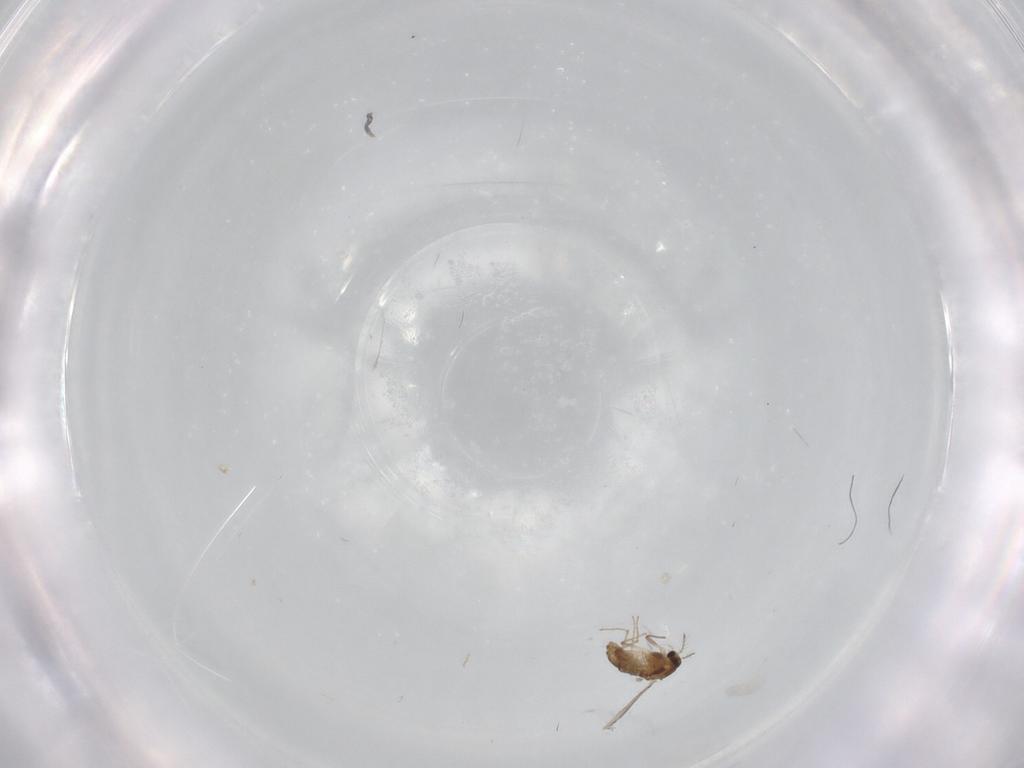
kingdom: Animalia
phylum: Arthropoda
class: Insecta
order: Diptera
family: Chironomidae
